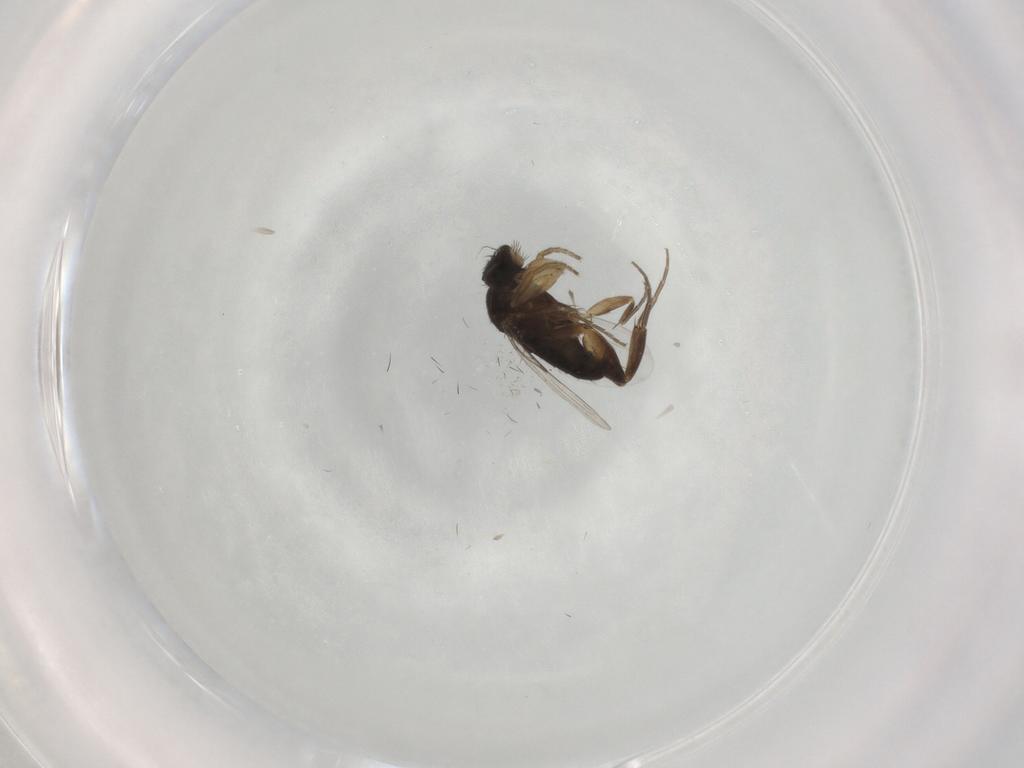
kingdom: Animalia
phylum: Arthropoda
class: Insecta
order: Diptera
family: Phoridae
